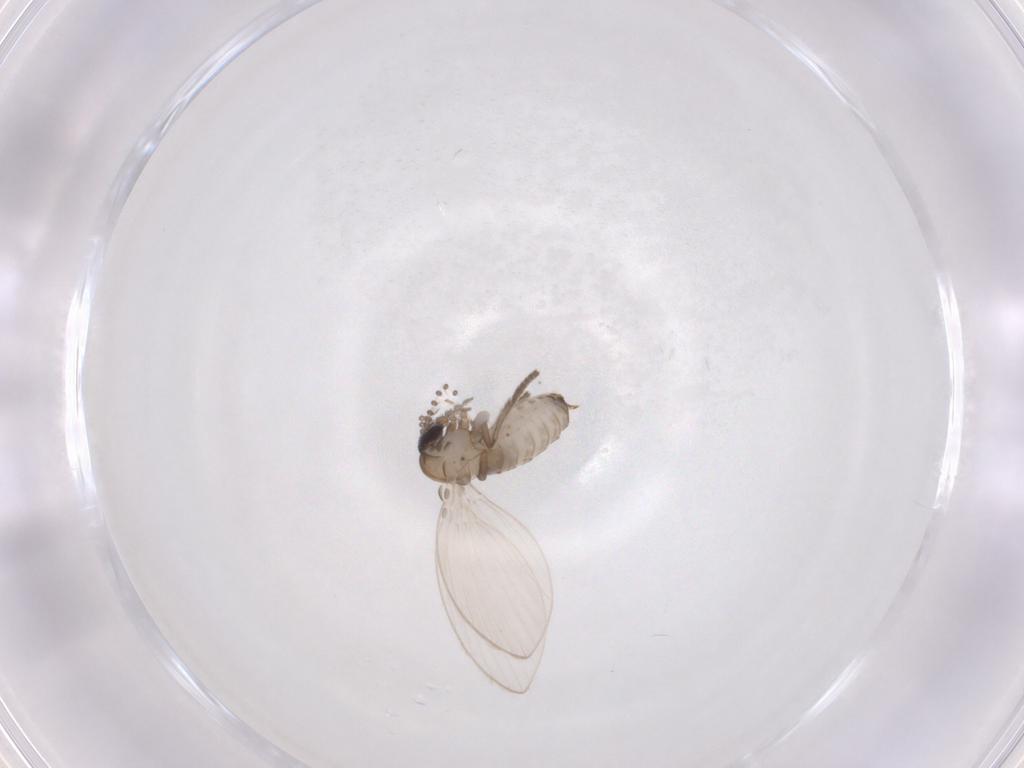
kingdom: Animalia
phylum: Arthropoda
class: Insecta
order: Diptera
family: Psychodidae
